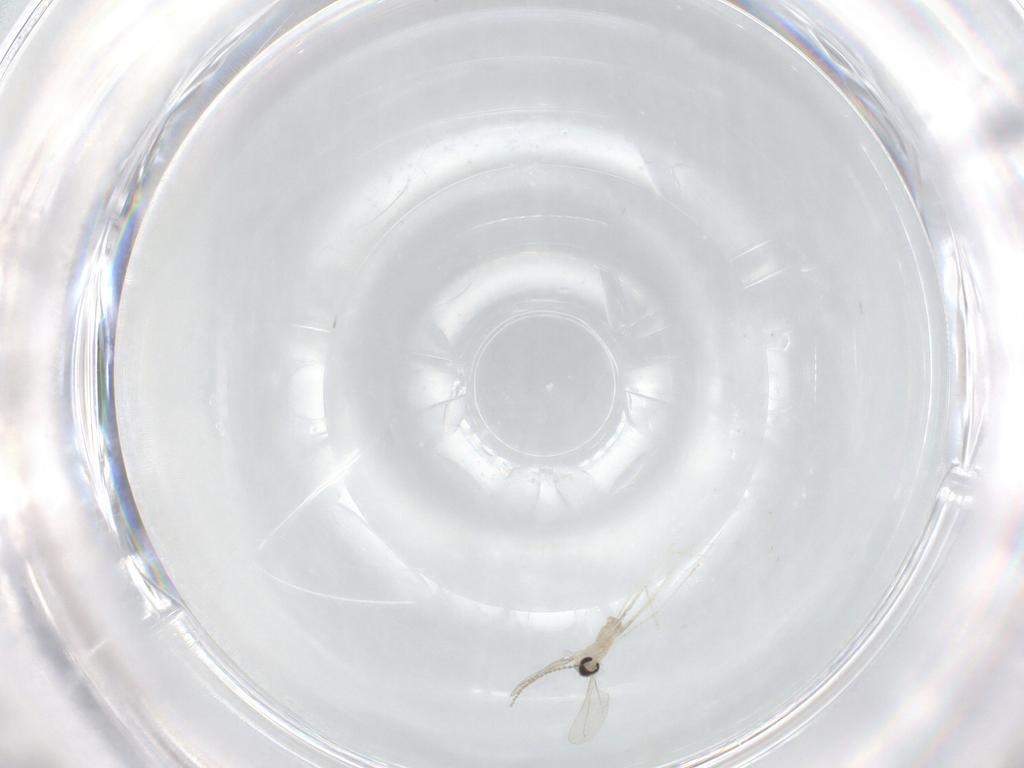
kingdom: Animalia
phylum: Arthropoda
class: Insecta
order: Diptera
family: Cecidomyiidae
